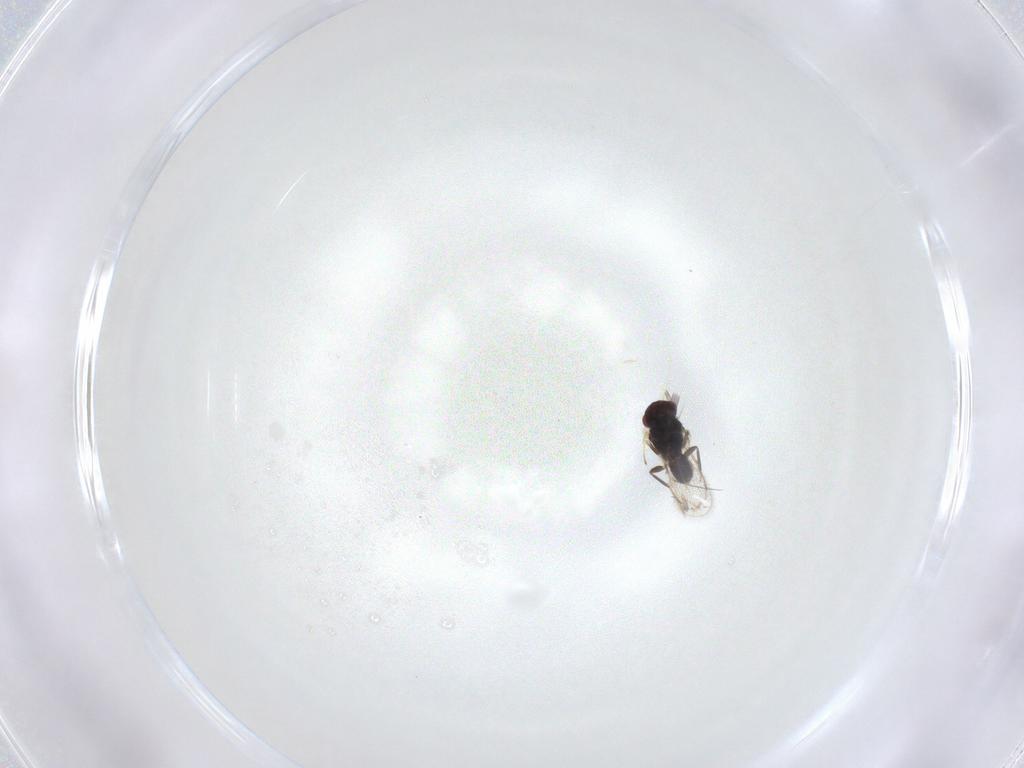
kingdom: Animalia
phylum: Arthropoda
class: Insecta
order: Hymenoptera
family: Eulophidae
